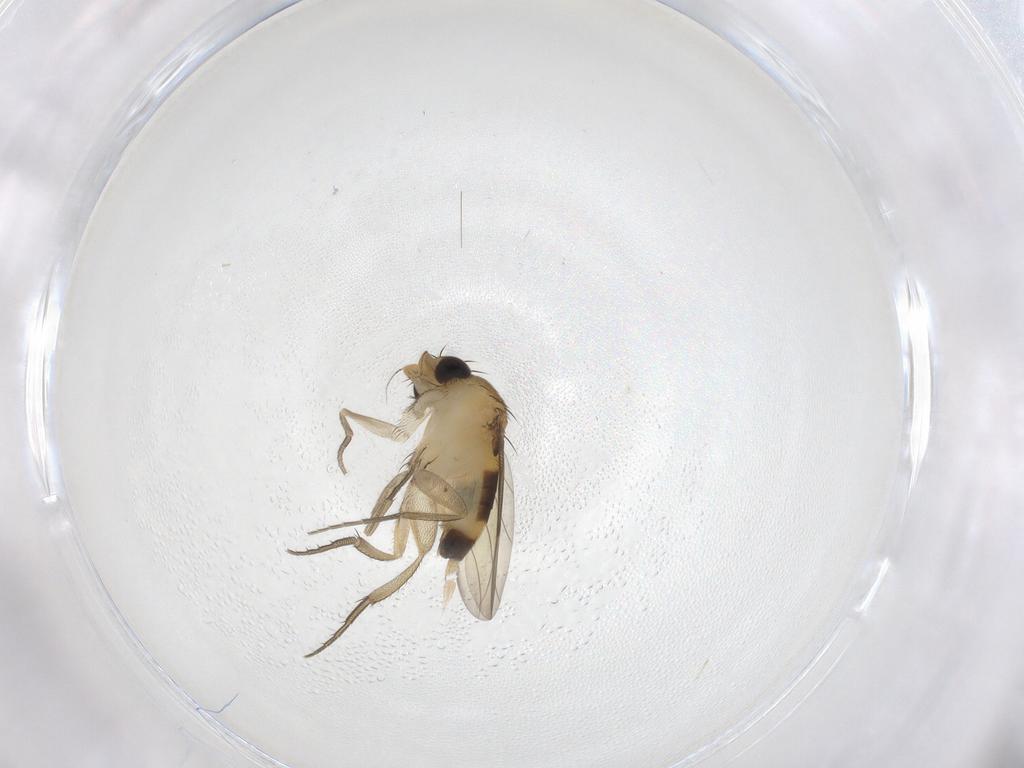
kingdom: Animalia
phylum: Arthropoda
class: Insecta
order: Diptera
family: Phoridae
